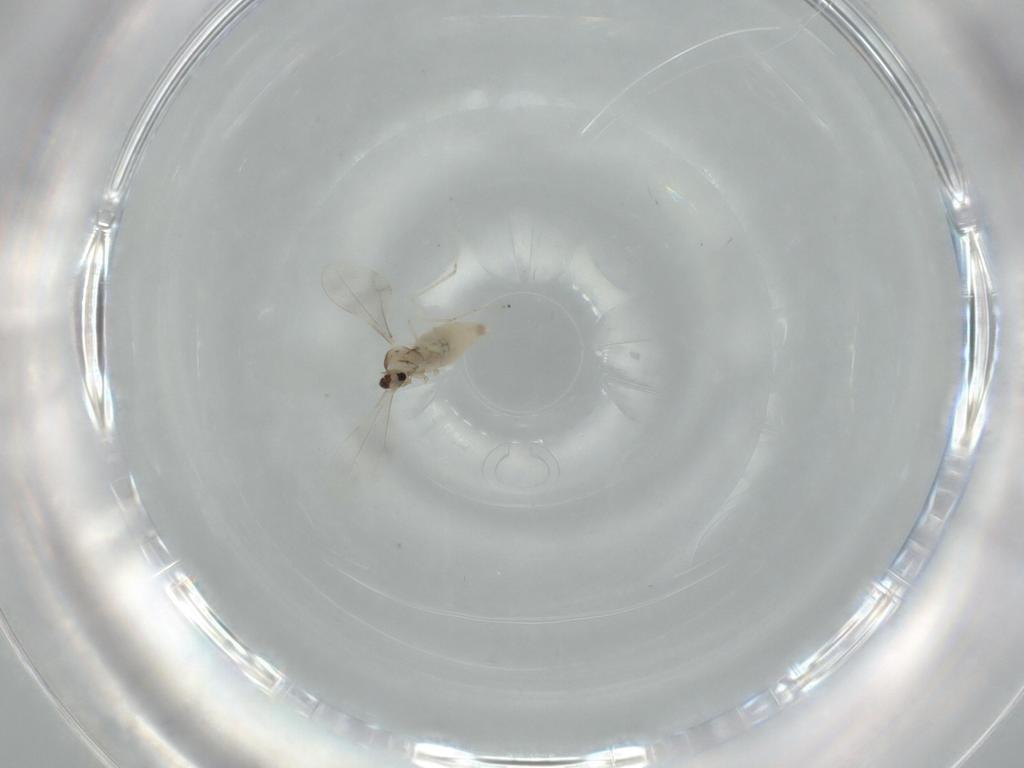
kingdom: Animalia
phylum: Arthropoda
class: Insecta
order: Diptera
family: Cecidomyiidae
